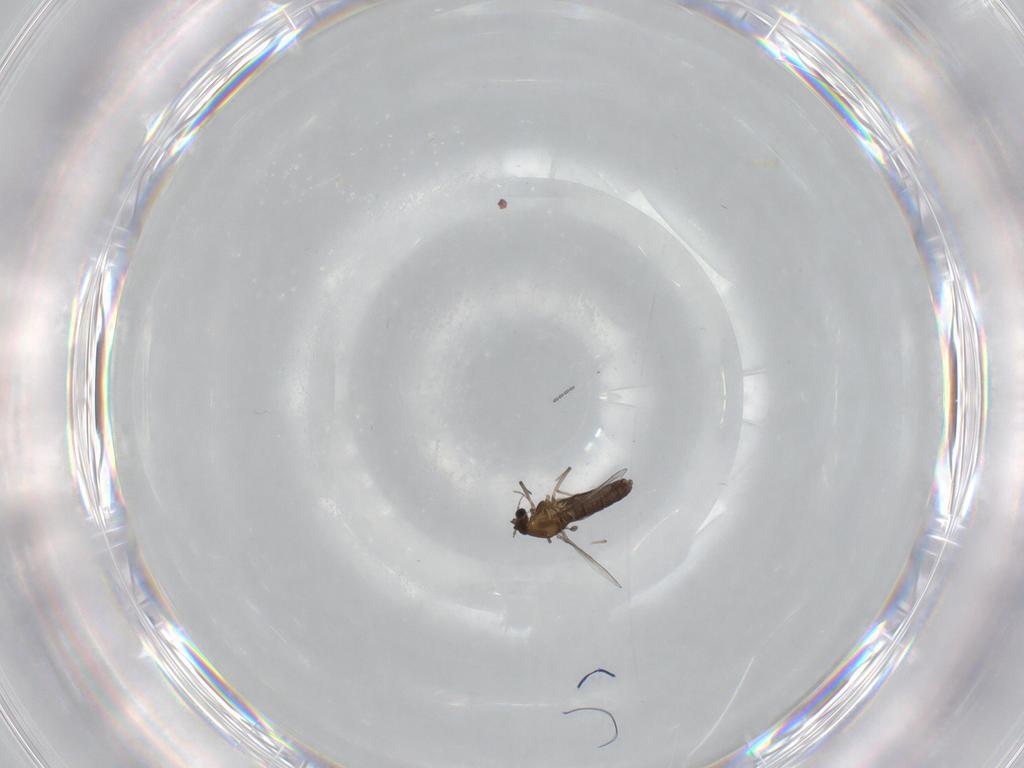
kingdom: Animalia
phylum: Arthropoda
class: Insecta
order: Diptera
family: Chironomidae
